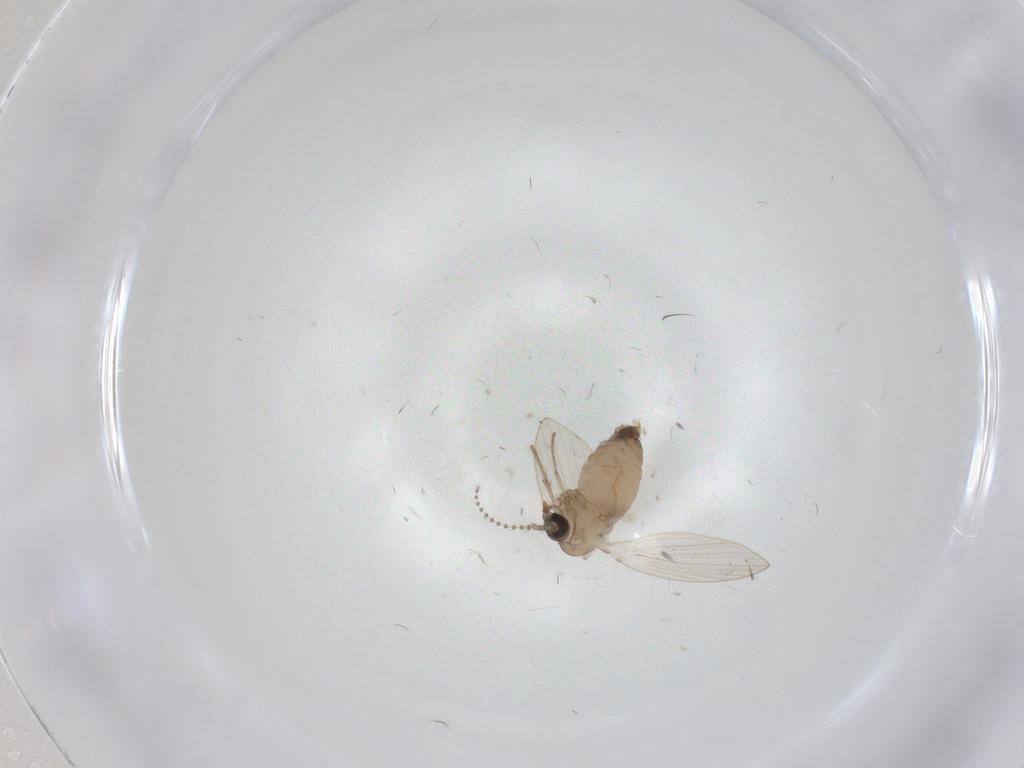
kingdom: Animalia
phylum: Arthropoda
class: Insecta
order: Diptera
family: Psychodidae
